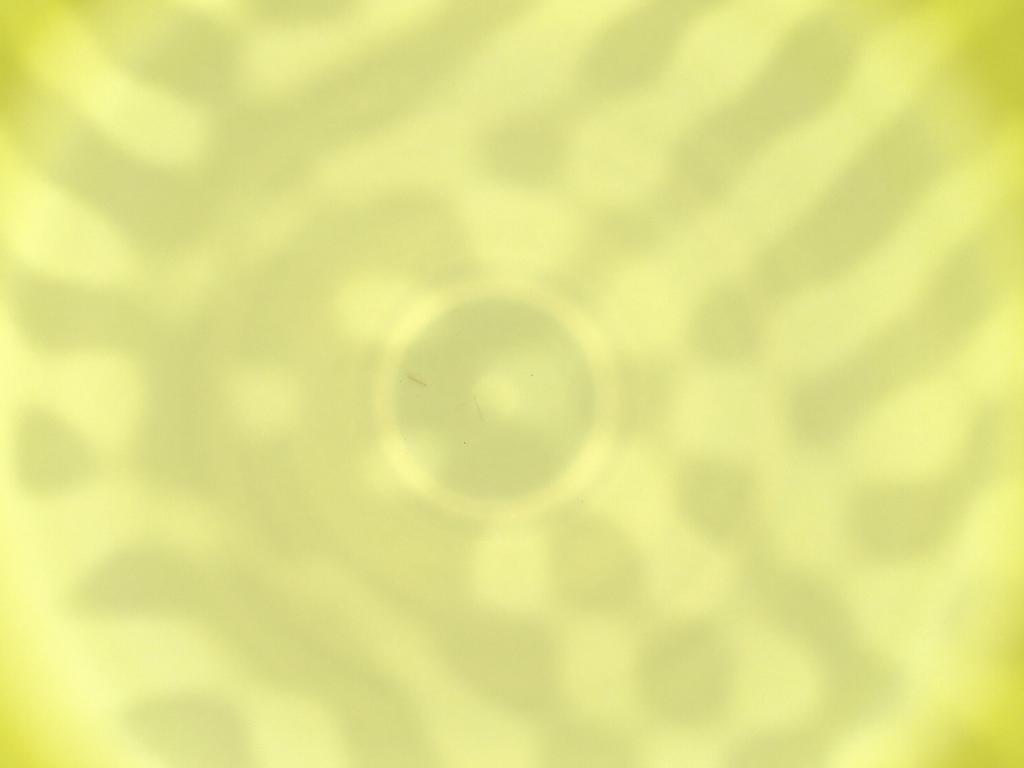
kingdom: Animalia
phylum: Arthropoda
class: Insecta
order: Diptera
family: Cecidomyiidae
